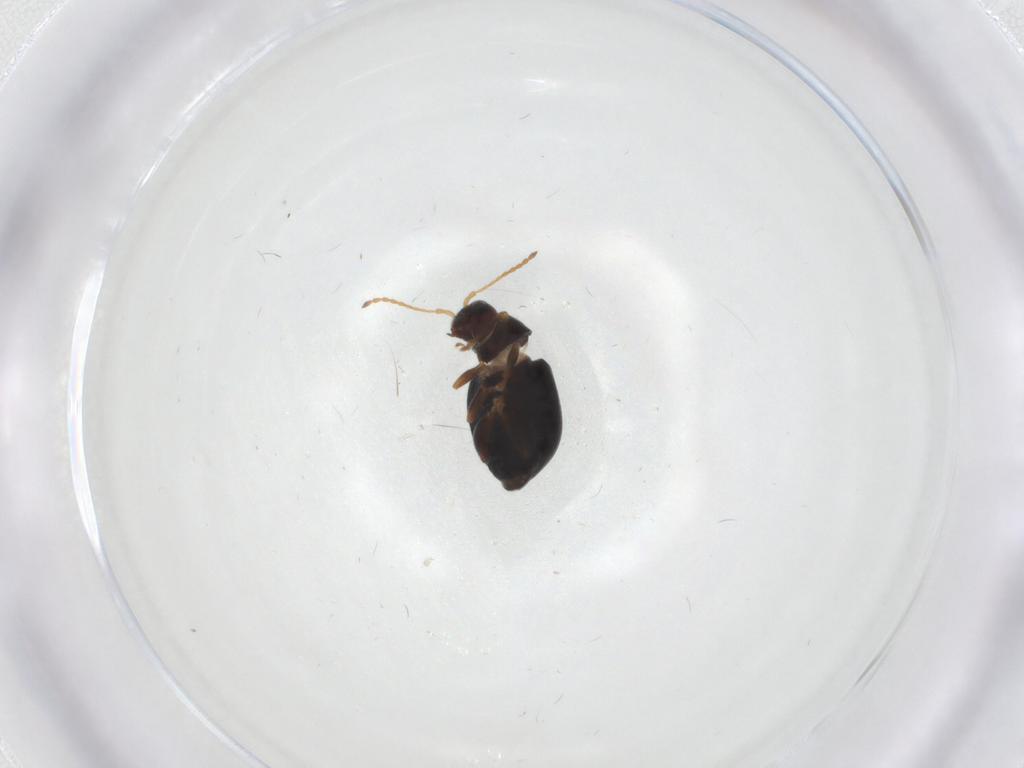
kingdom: Animalia
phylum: Arthropoda
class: Insecta
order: Coleoptera
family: Chrysomelidae
